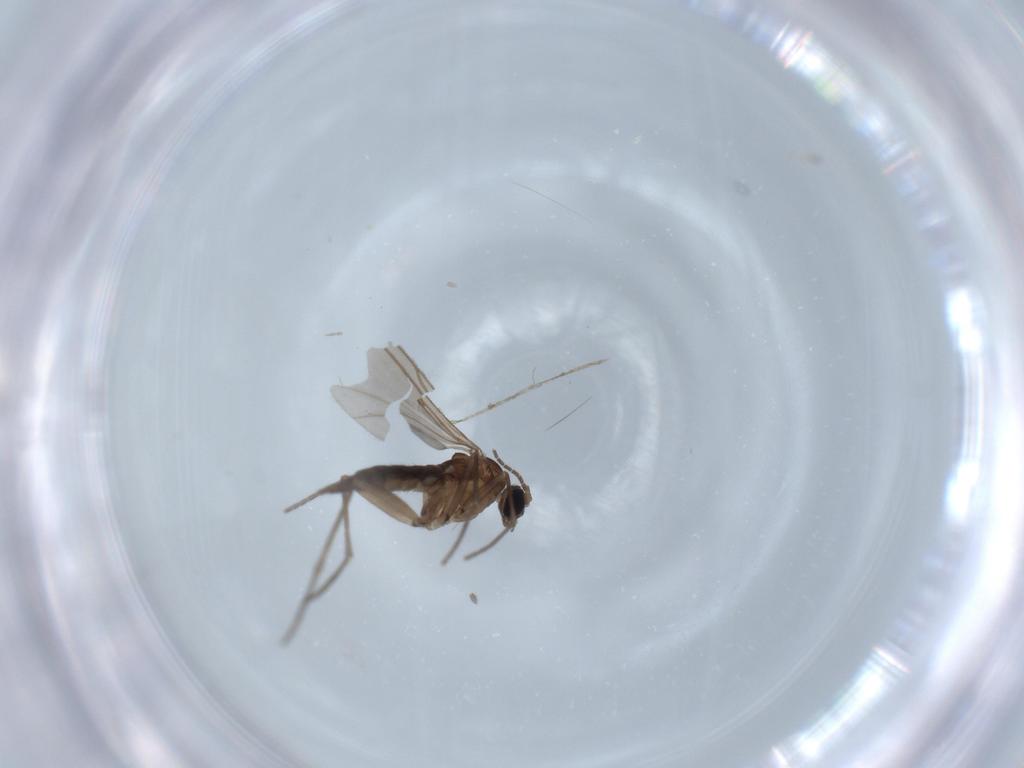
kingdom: Animalia
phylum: Arthropoda
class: Insecta
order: Diptera
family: Sciaridae
